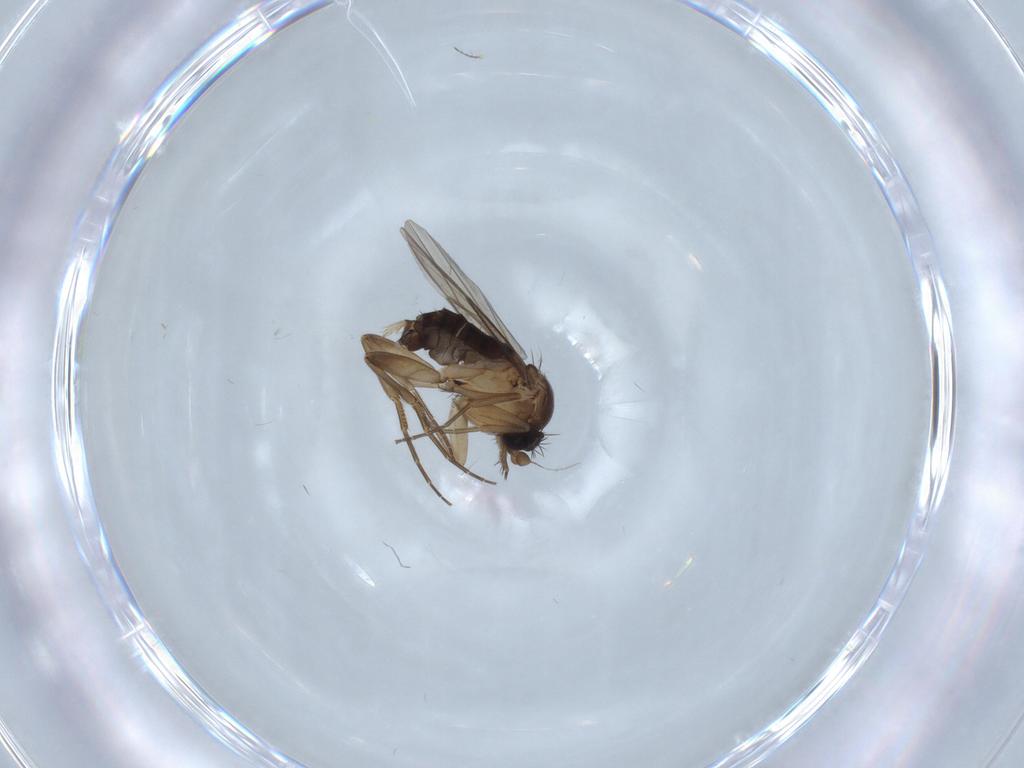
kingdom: Animalia
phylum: Arthropoda
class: Insecta
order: Diptera
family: Phoridae
